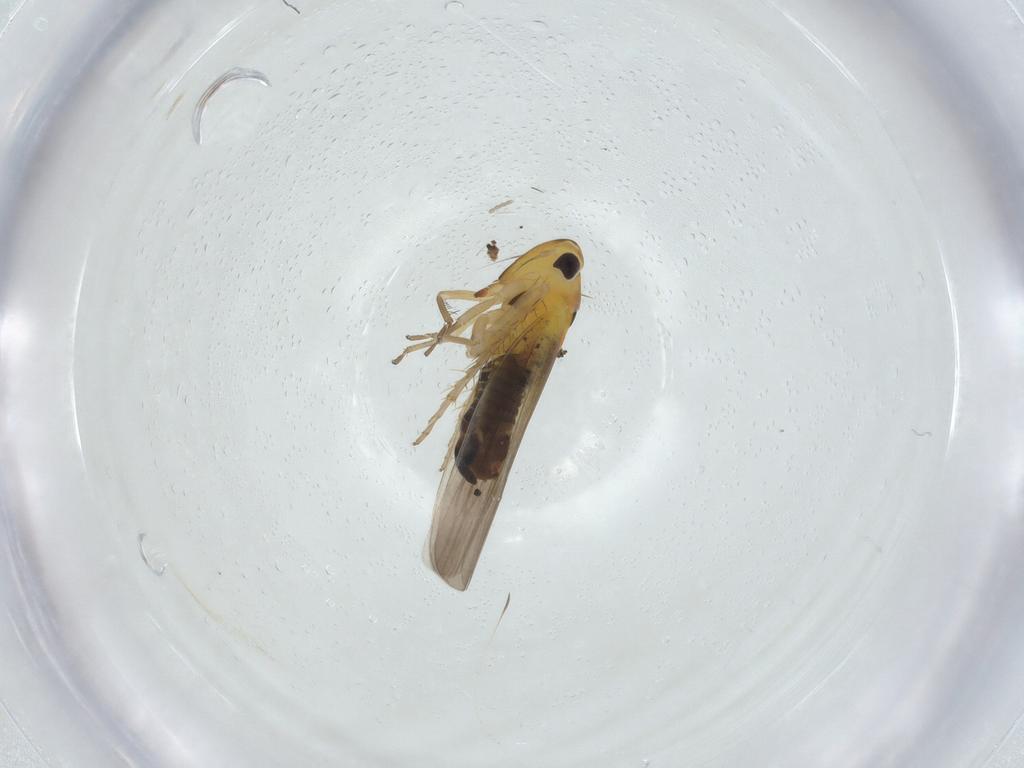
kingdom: Animalia
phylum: Arthropoda
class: Insecta
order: Hemiptera
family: Cicadellidae
